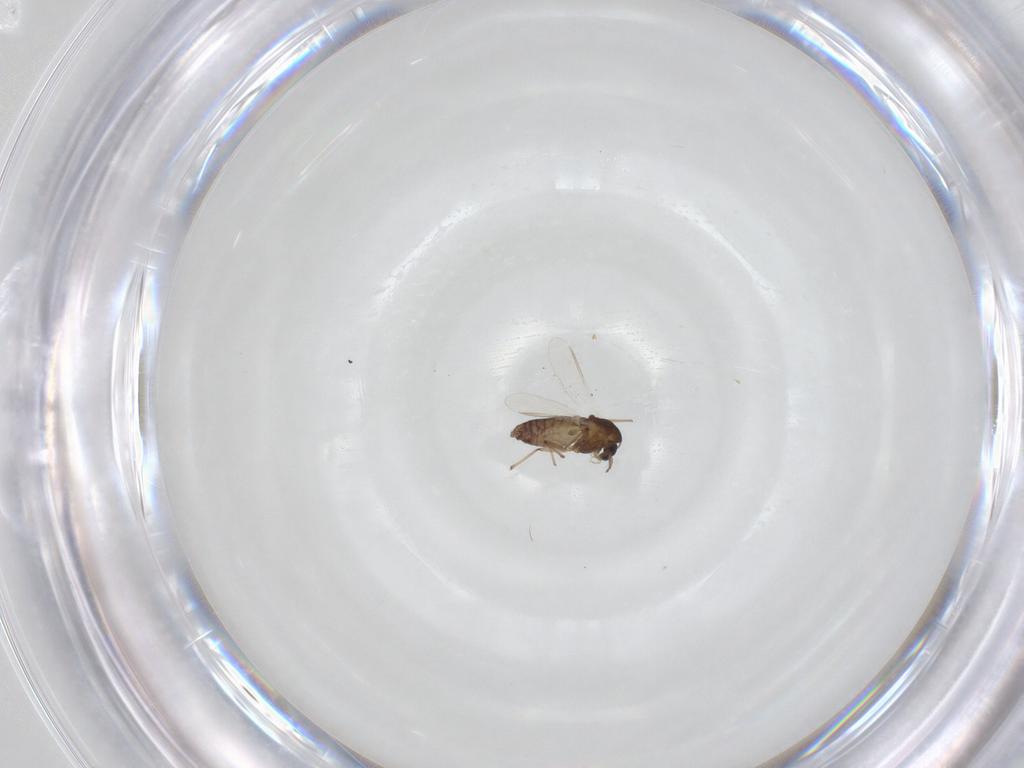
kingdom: Animalia
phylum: Arthropoda
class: Insecta
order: Diptera
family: Chironomidae
